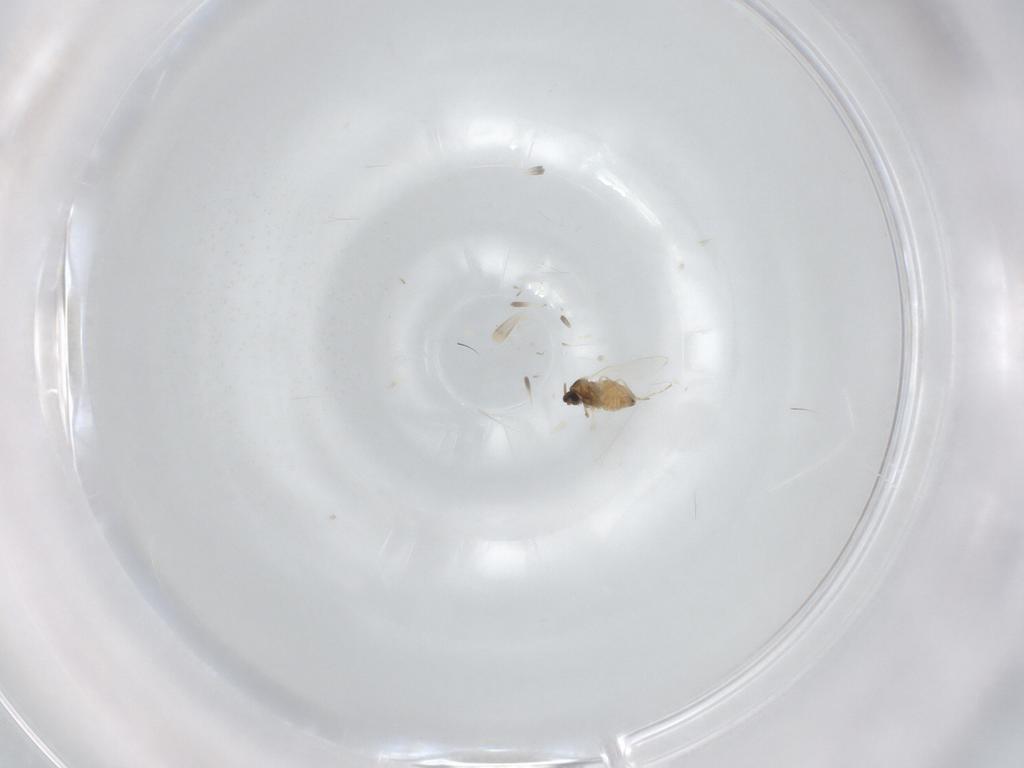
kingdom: Animalia
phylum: Arthropoda
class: Insecta
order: Diptera
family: Cecidomyiidae
